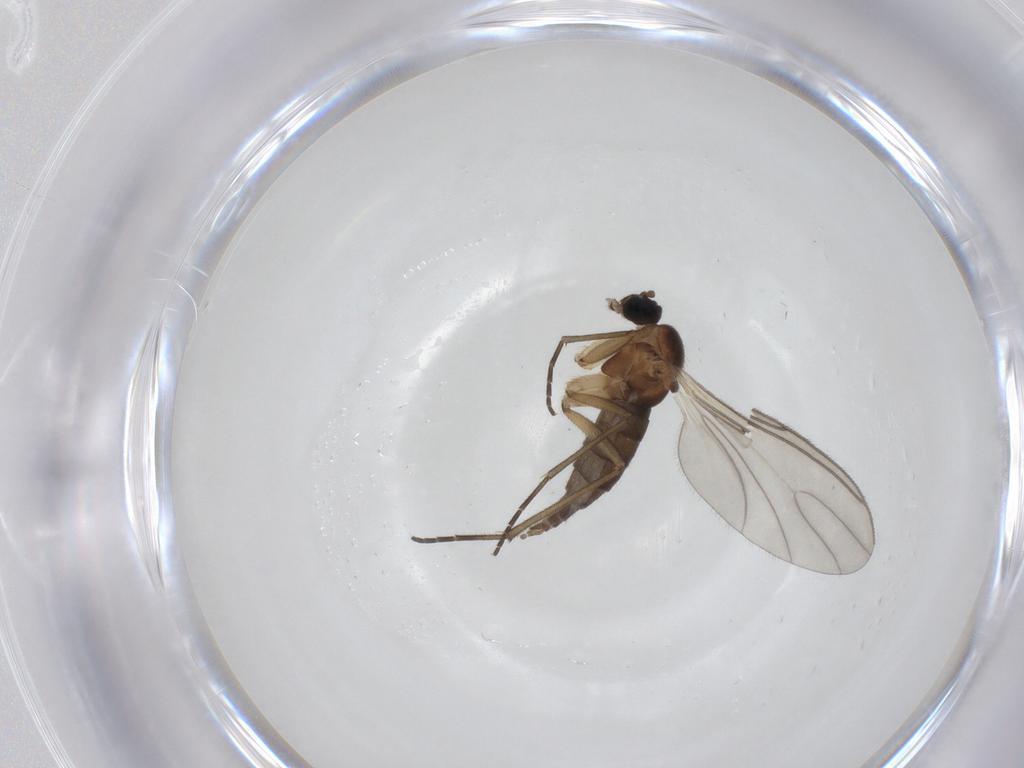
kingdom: Animalia
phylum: Arthropoda
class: Insecta
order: Diptera
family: Sciaridae
